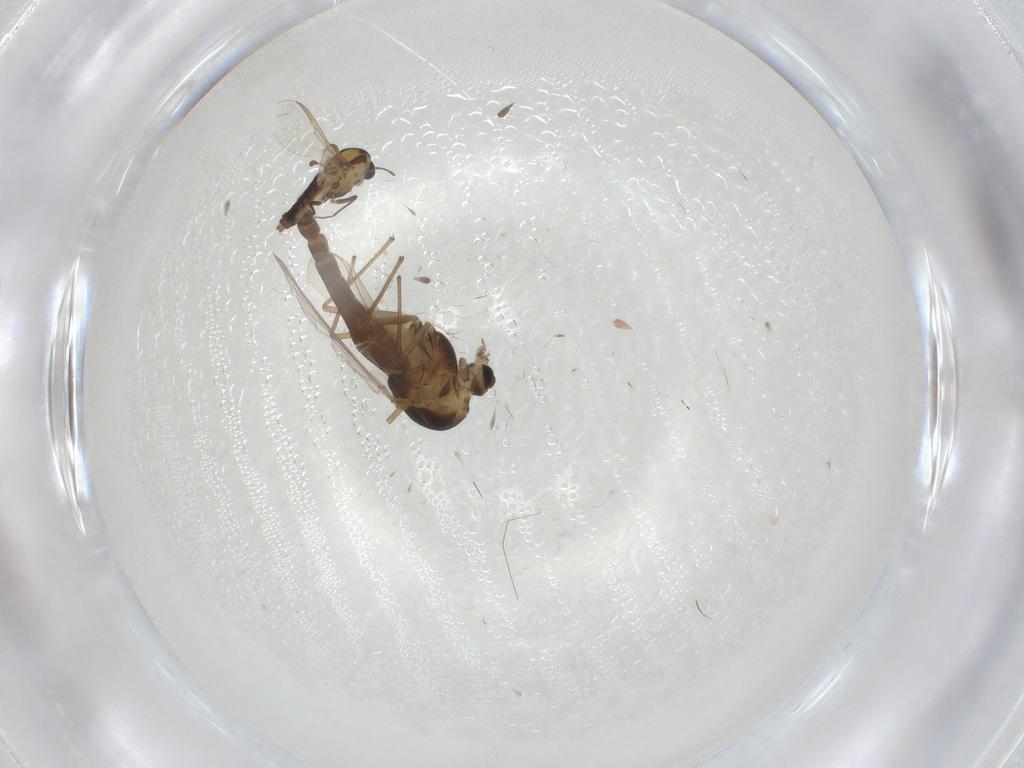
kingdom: Animalia
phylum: Arthropoda
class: Insecta
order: Diptera
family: Chironomidae
